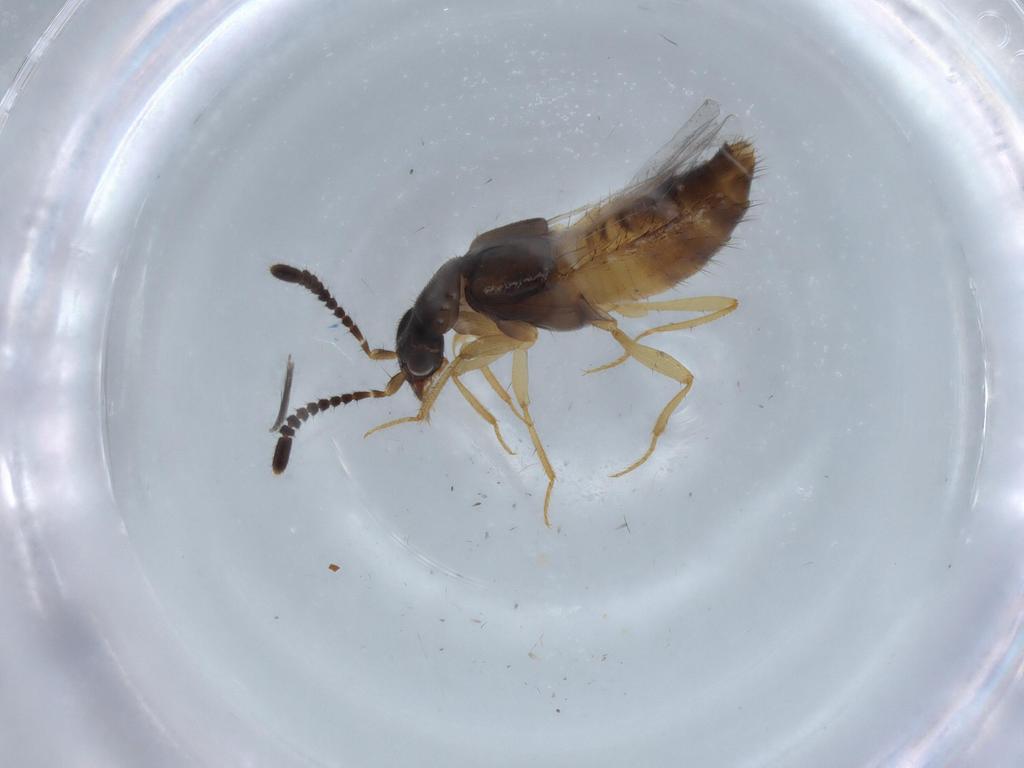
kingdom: Animalia
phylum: Arthropoda
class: Insecta
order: Coleoptera
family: Staphylinidae
